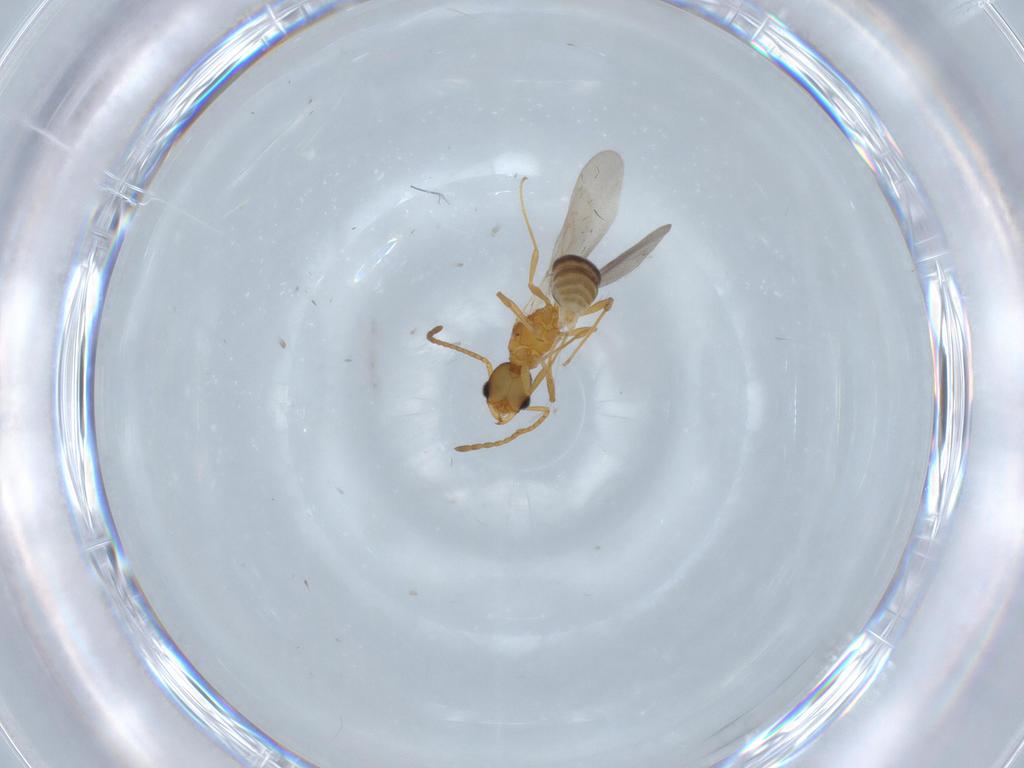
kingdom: Animalia
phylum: Arthropoda
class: Insecta
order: Hymenoptera
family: Formicidae
